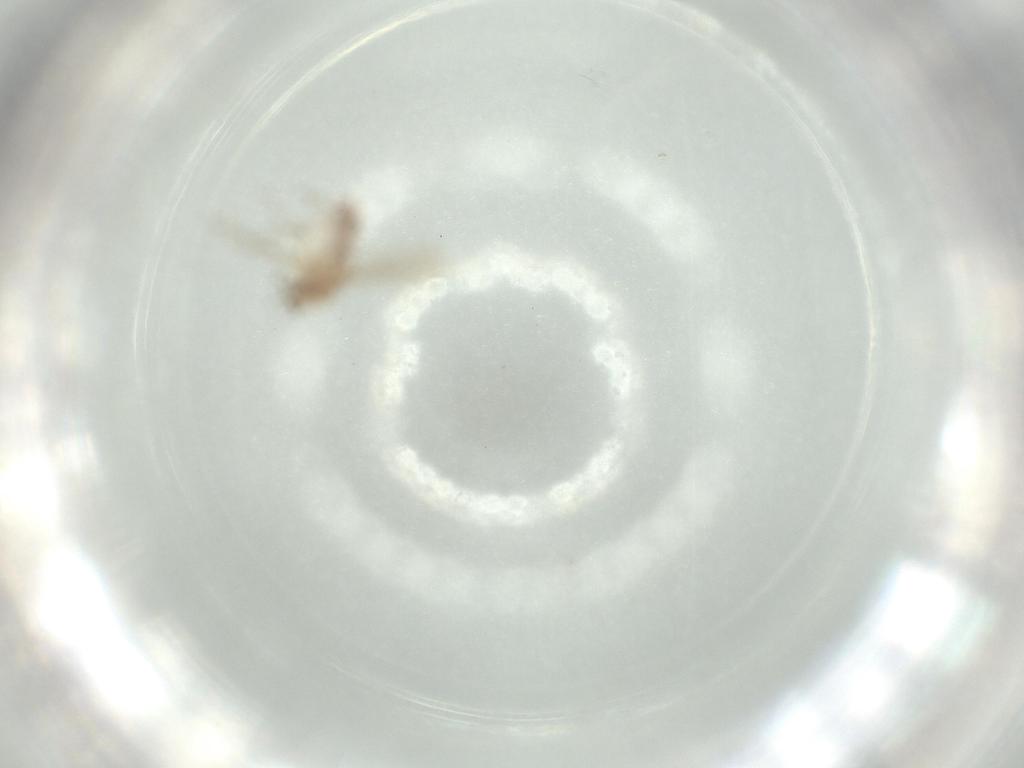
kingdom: Animalia
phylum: Arthropoda
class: Insecta
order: Diptera
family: Chironomidae
